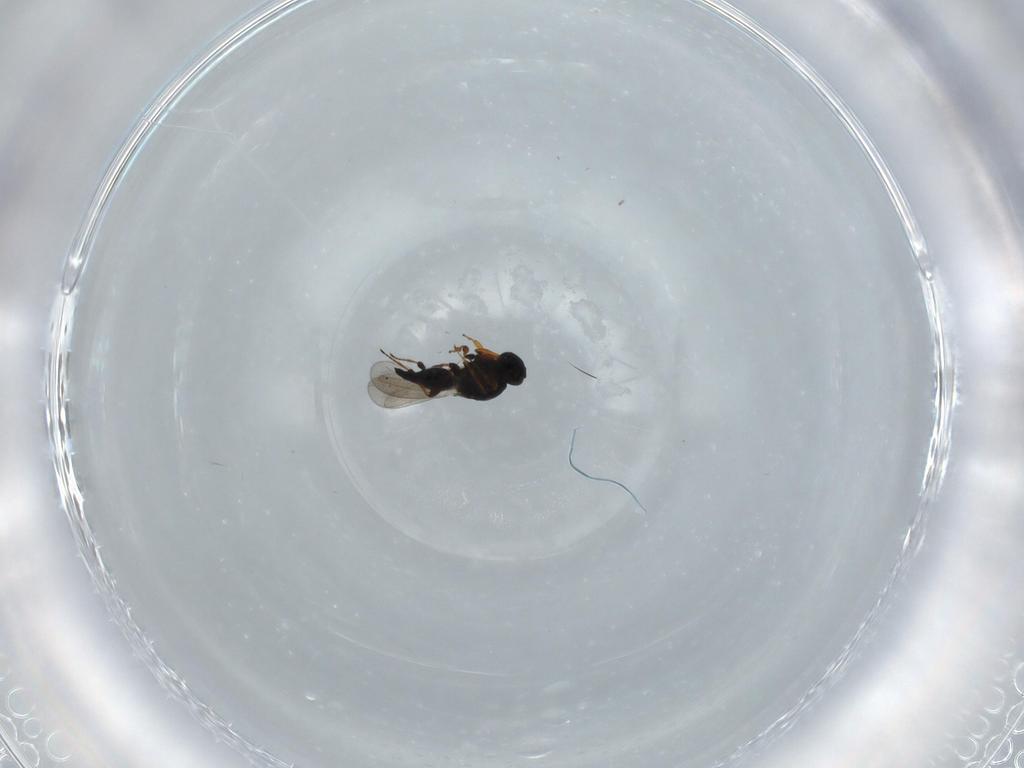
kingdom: Animalia
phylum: Arthropoda
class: Insecta
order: Hymenoptera
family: Platygastridae
